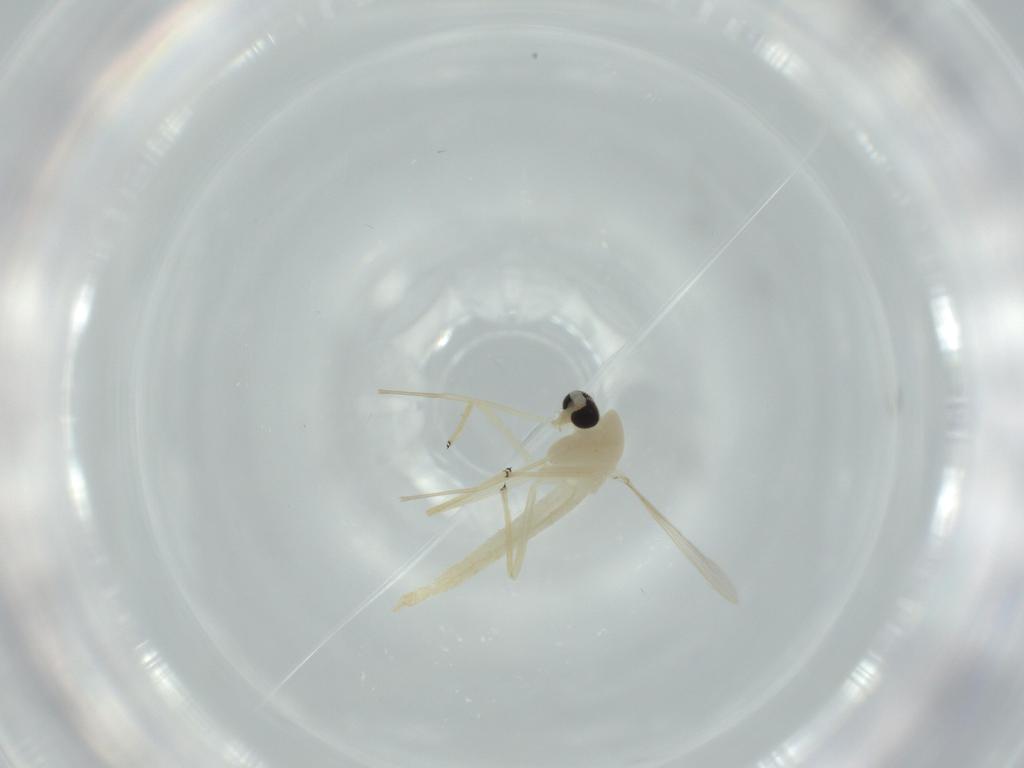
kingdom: Animalia
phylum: Arthropoda
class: Insecta
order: Diptera
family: Chironomidae
